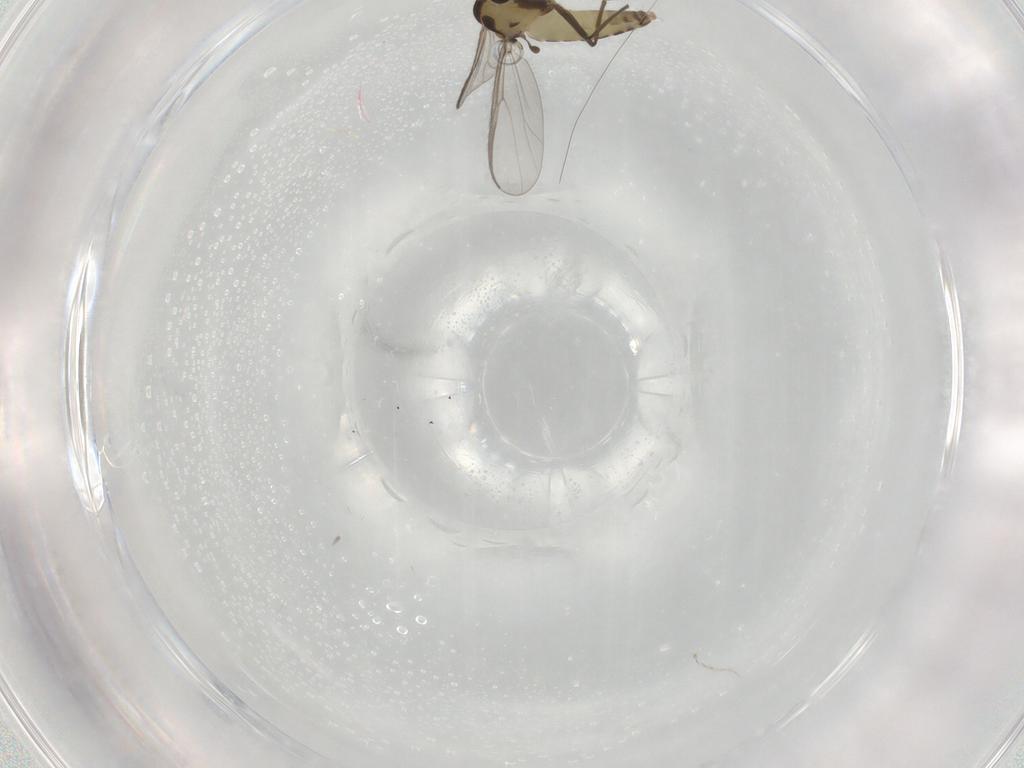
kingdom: Animalia
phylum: Arthropoda
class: Insecta
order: Diptera
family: Chironomidae
